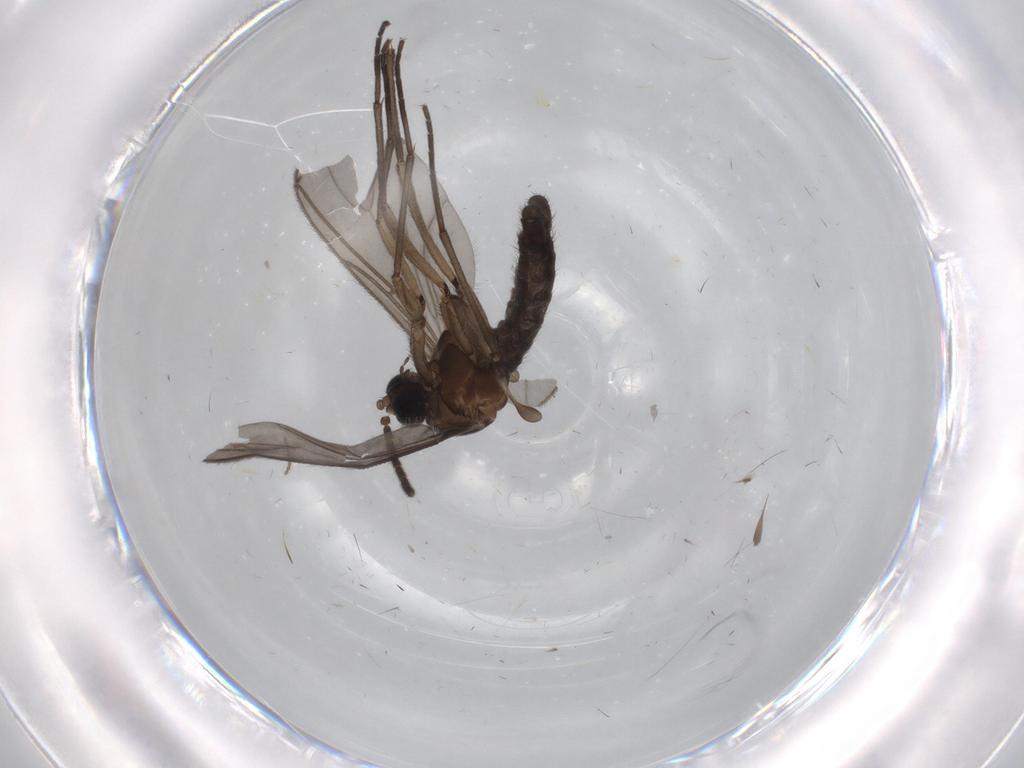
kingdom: Animalia
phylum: Arthropoda
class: Insecta
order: Diptera
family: Sciaridae
